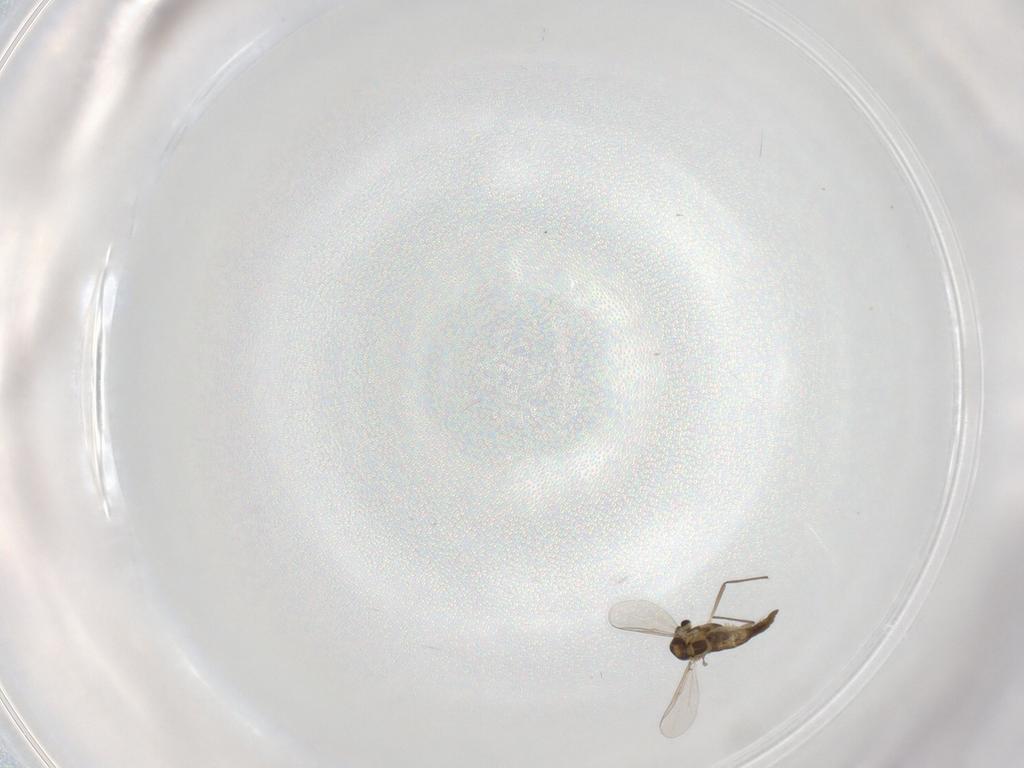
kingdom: Animalia
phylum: Arthropoda
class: Insecta
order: Diptera
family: Chironomidae
